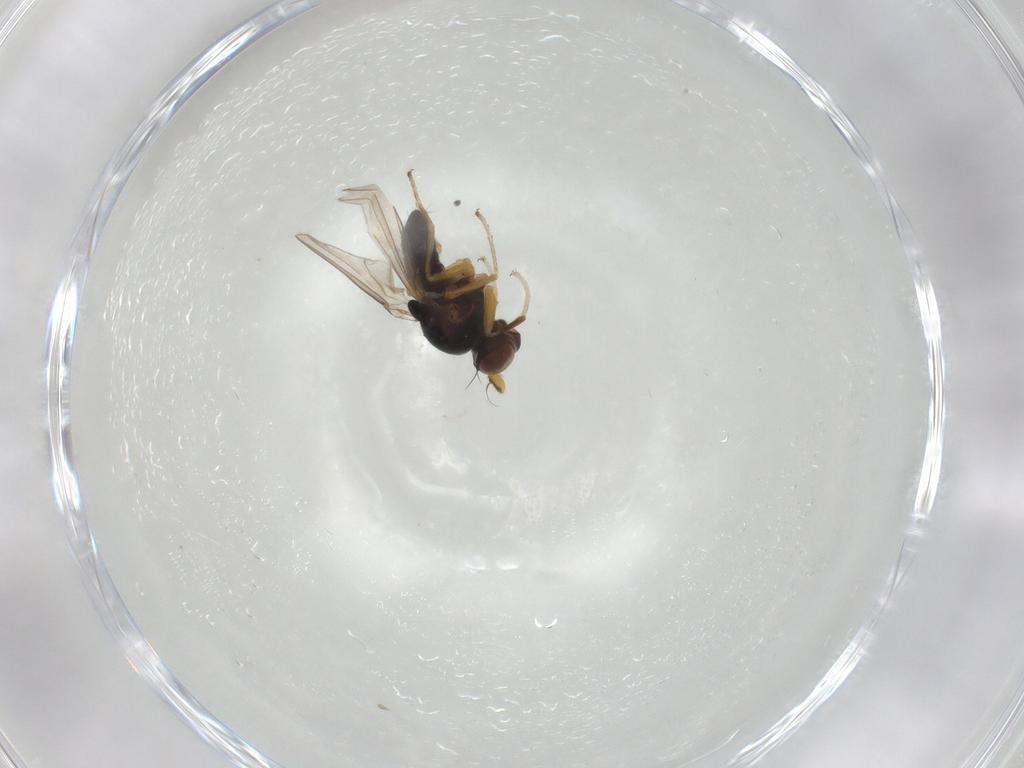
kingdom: Animalia
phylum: Arthropoda
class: Insecta
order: Diptera
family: Ephydridae
